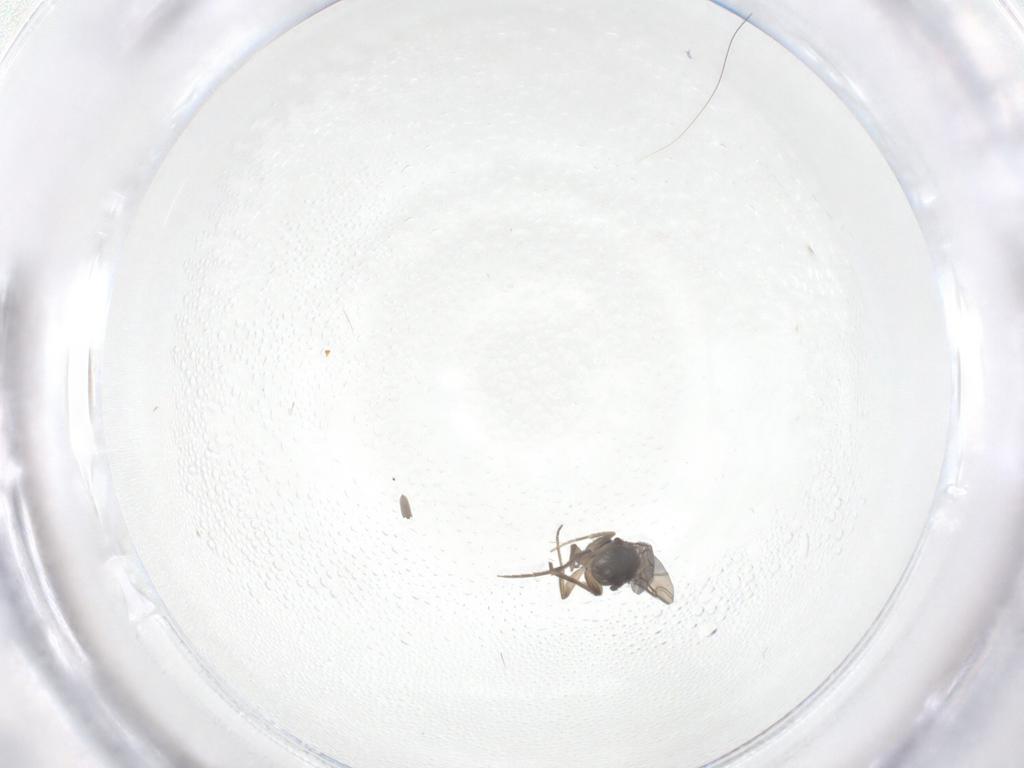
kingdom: Animalia
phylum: Arthropoda
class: Insecta
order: Diptera
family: Phoridae
